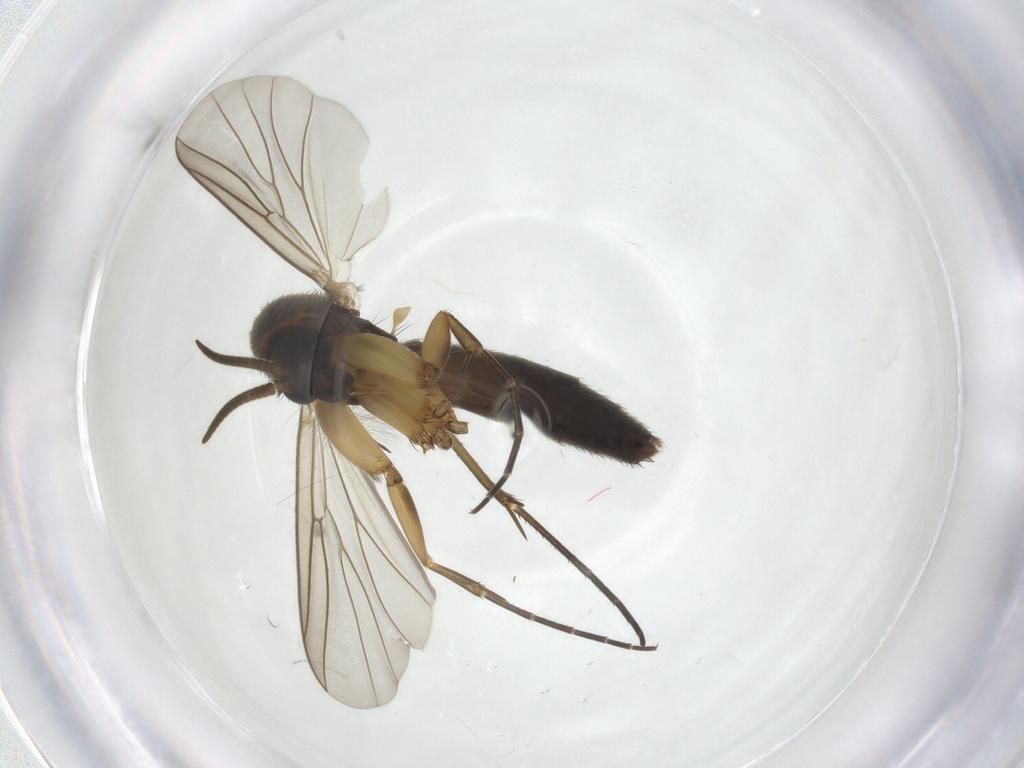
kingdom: Animalia
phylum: Arthropoda
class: Insecta
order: Diptera
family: Mycetophilidae
